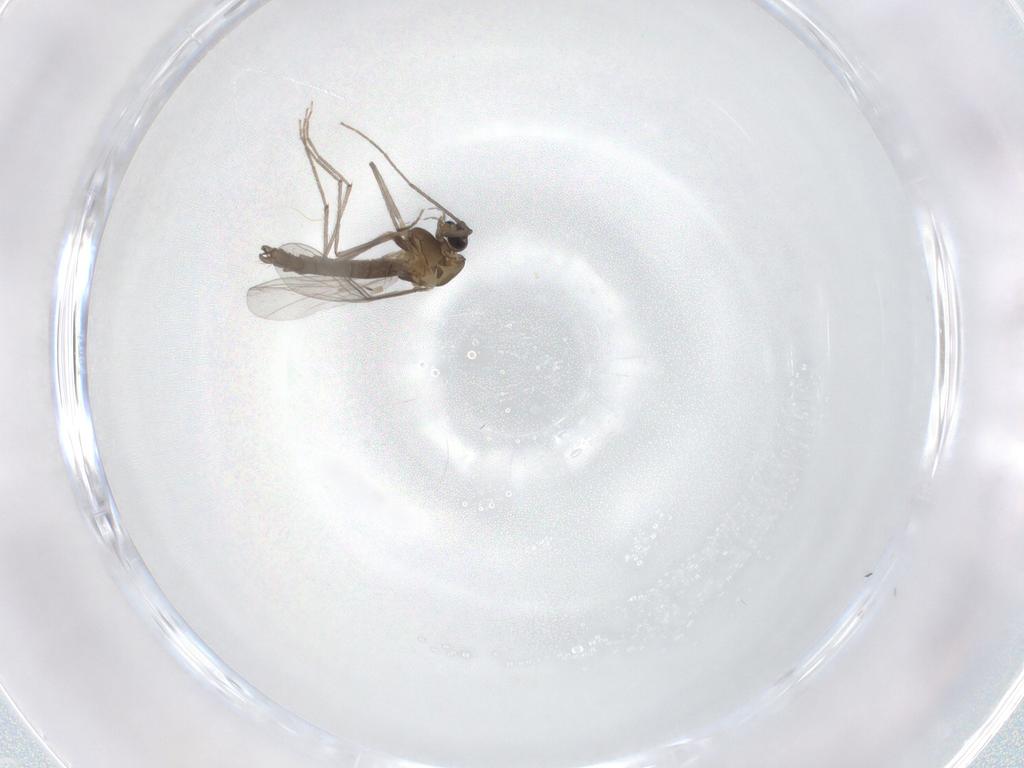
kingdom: Animalia
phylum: Arthropoda
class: Insecta
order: Diptera
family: Chironomidae
